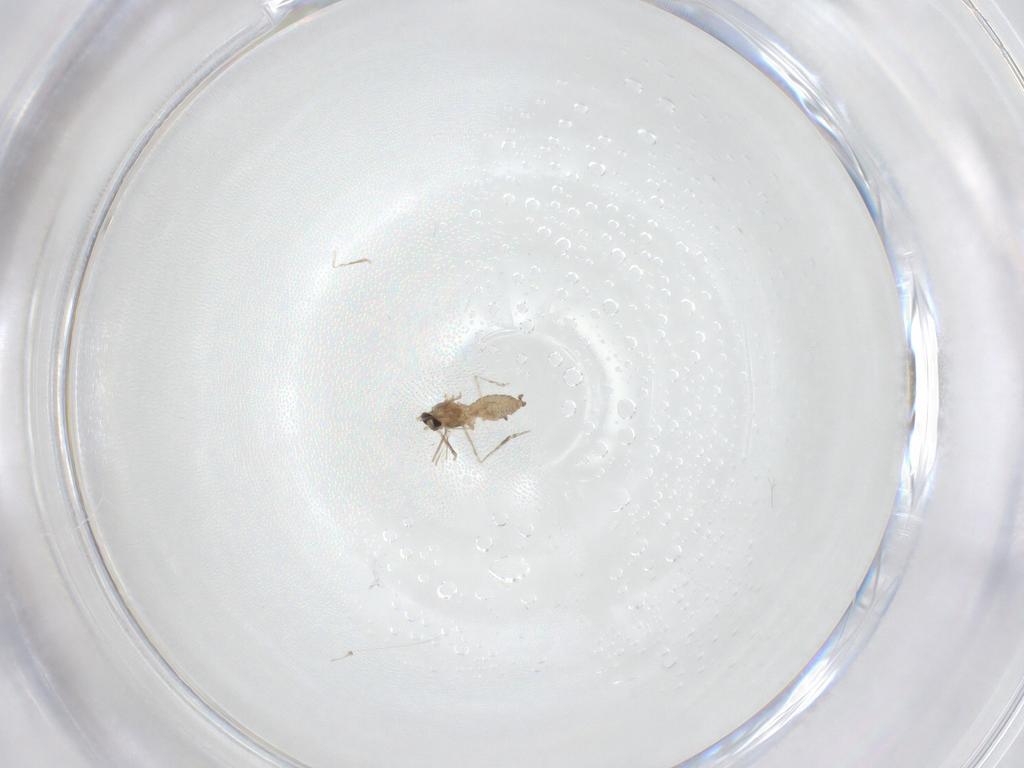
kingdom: Animalia
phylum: Arthropoda
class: Insecta
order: Diptera
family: Cecidomyiidae
